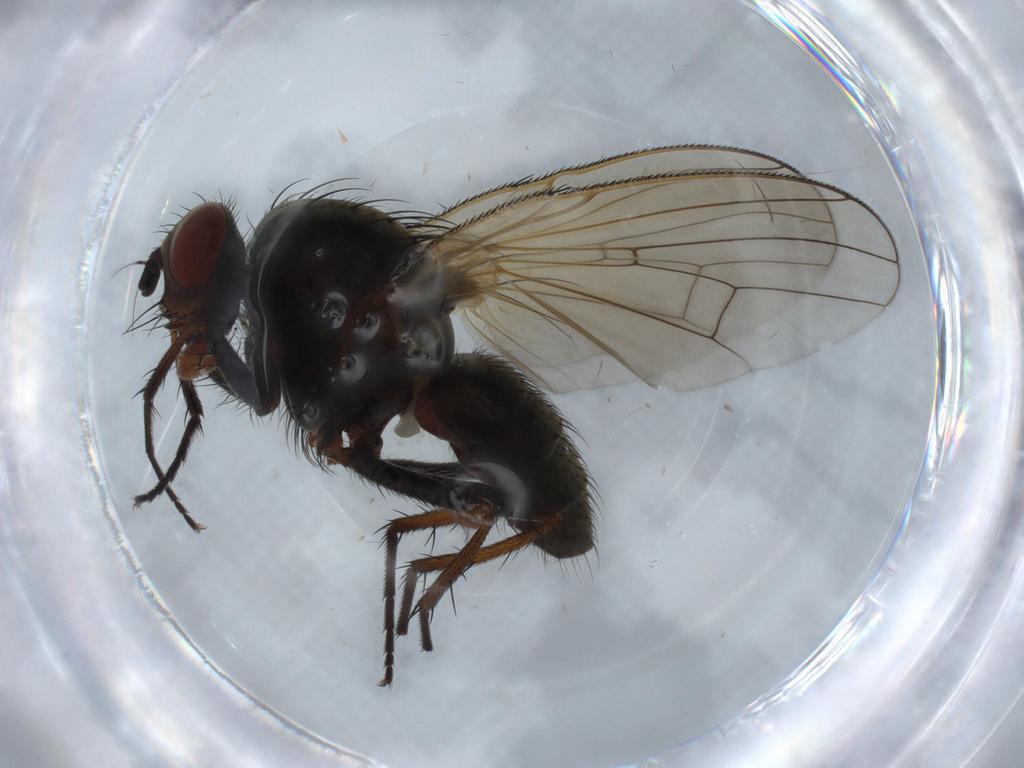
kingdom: Animalia
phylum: Arthropoda
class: Insecta
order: Diptera
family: Anthomyiidae
